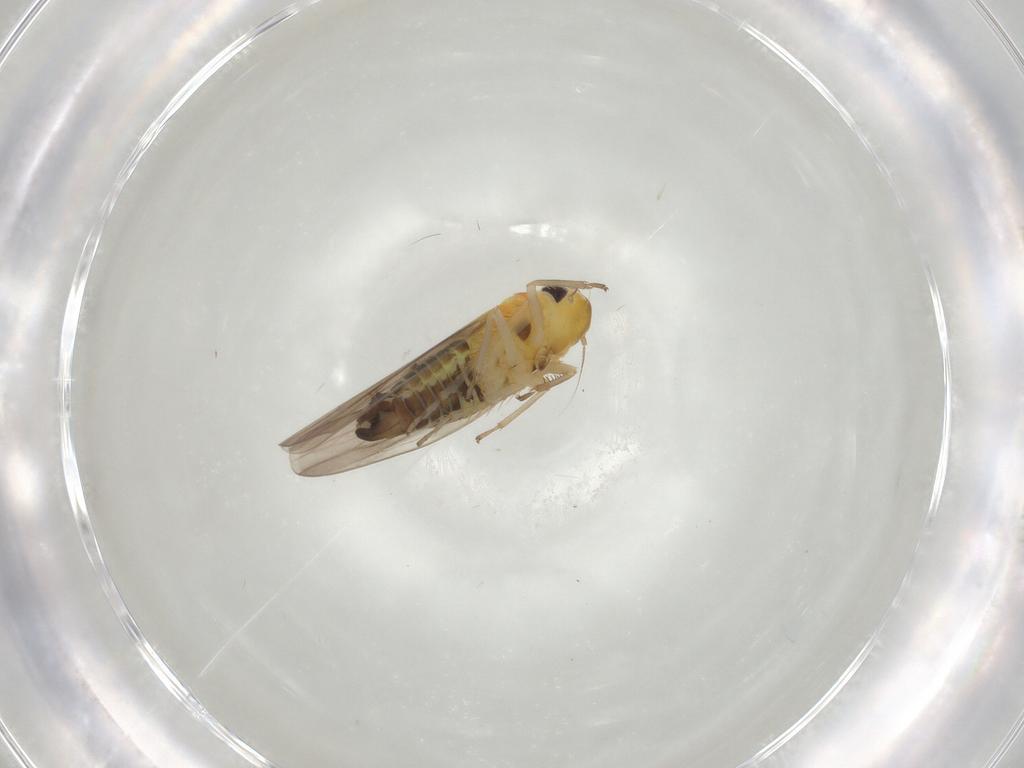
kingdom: Animalia
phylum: Arthropoda
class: Insecta
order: Hemiptera
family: Cicadellidae
